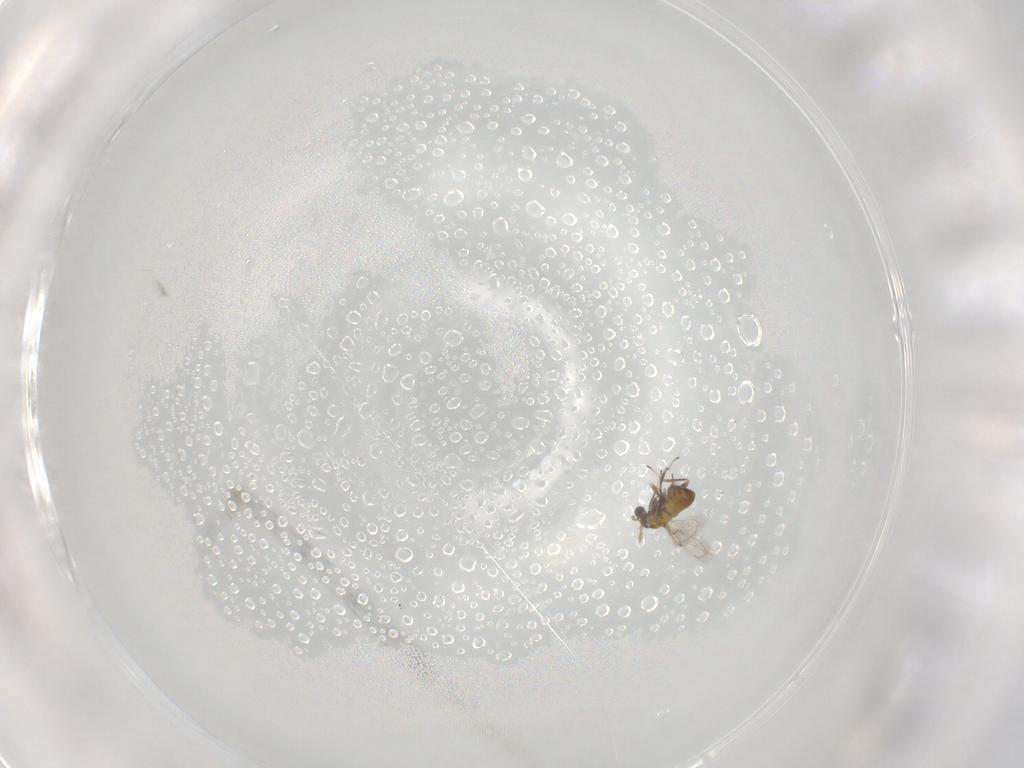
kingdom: Animalia
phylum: Arthropoda
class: Insecta
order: Hymenoptera
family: Trichogrammatidae
